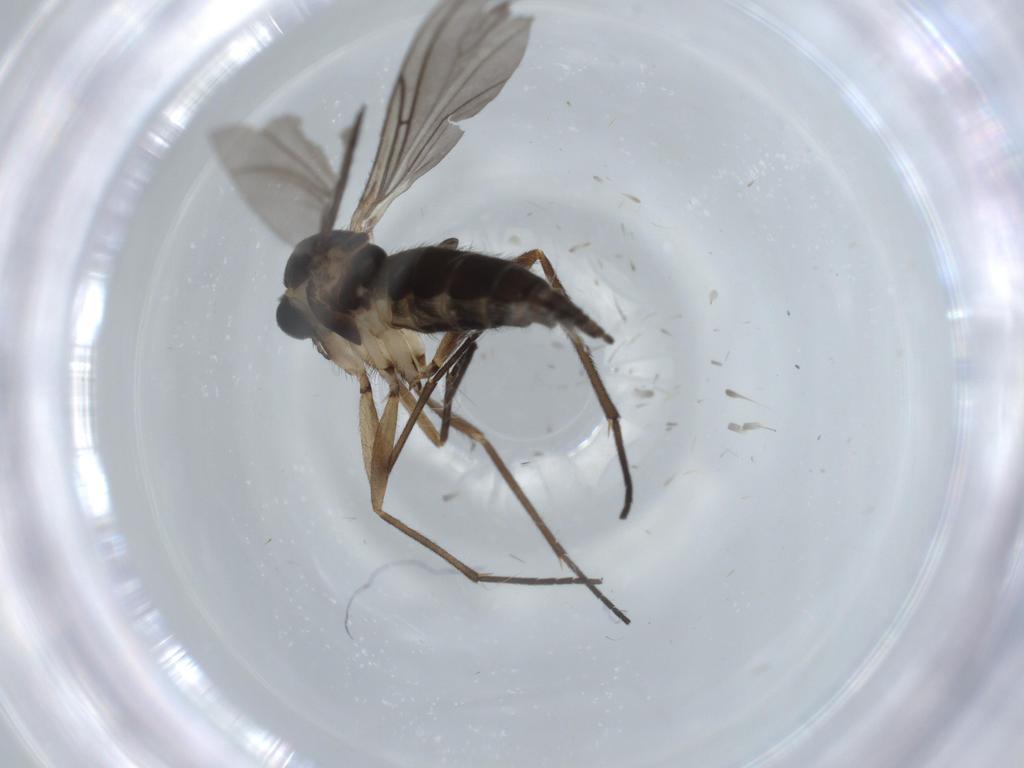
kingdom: Animalia
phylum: Arthropoda
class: Insecta
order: Diptera
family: Sciaridae
